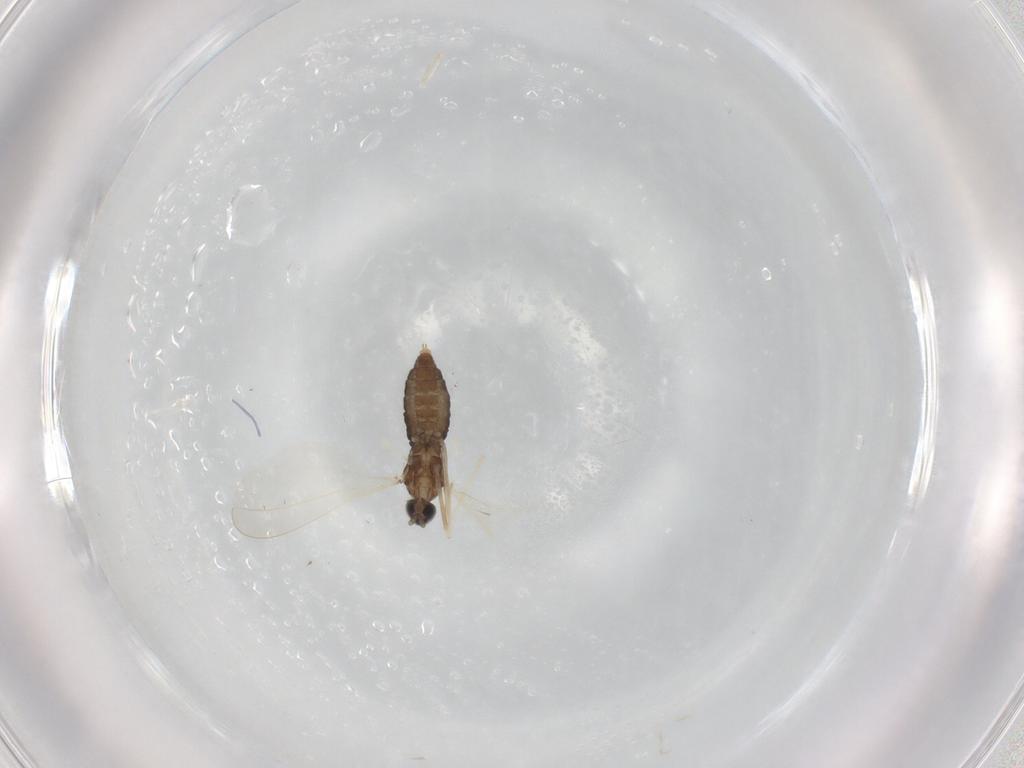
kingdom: Animalia
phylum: Arthropoda
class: Insecta
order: Diptera
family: Cecidomyiidae
